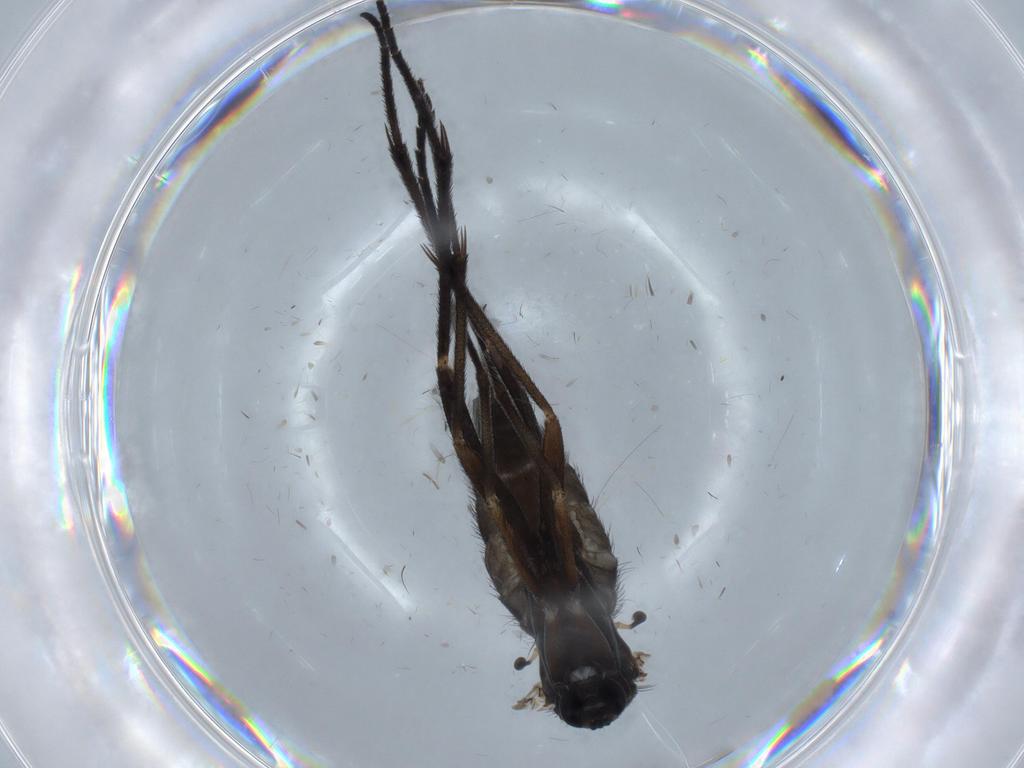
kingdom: Animalia
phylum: Arthropoda
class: Insecta
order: Diptera
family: Sciaridae
